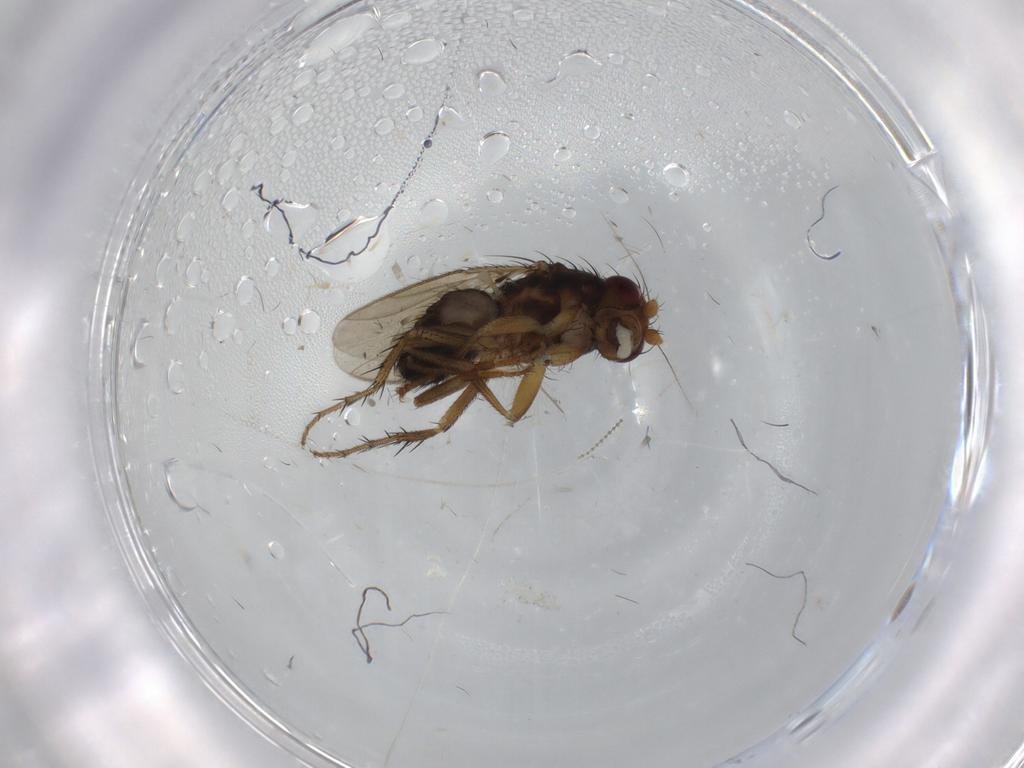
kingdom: Animalia
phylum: Arthropoda
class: Insecta
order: Diptera
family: Sphaeroceridae
